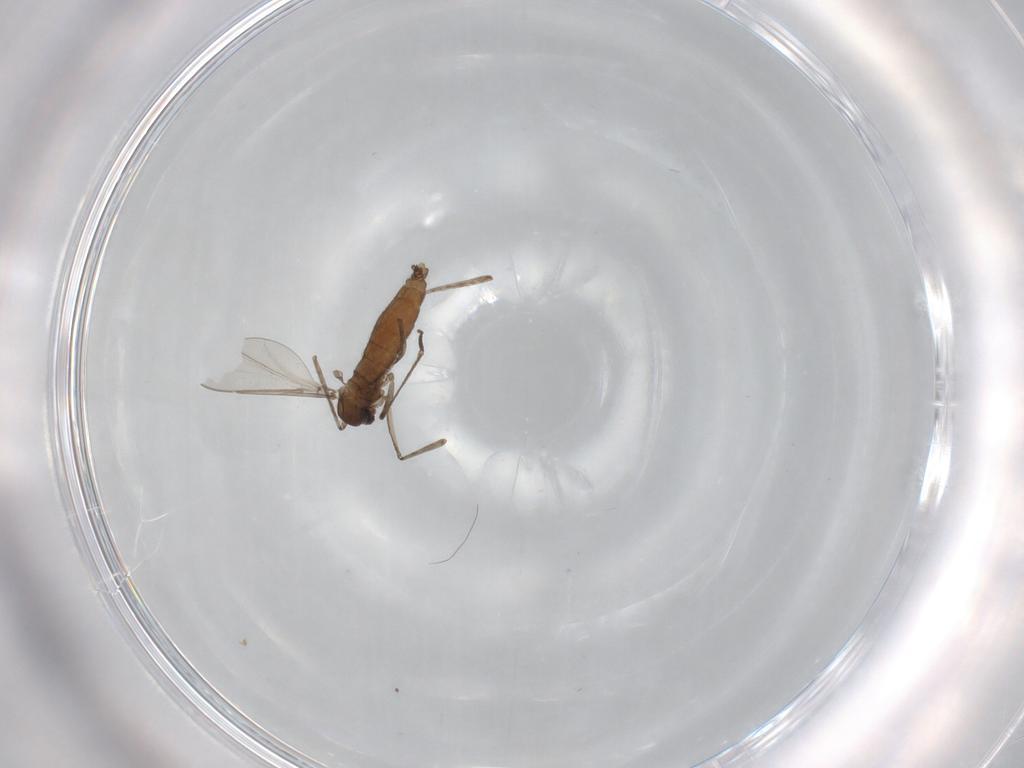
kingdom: Animalia
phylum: Arthropoda
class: Insecta
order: Diptera
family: Cecidomyiidae
